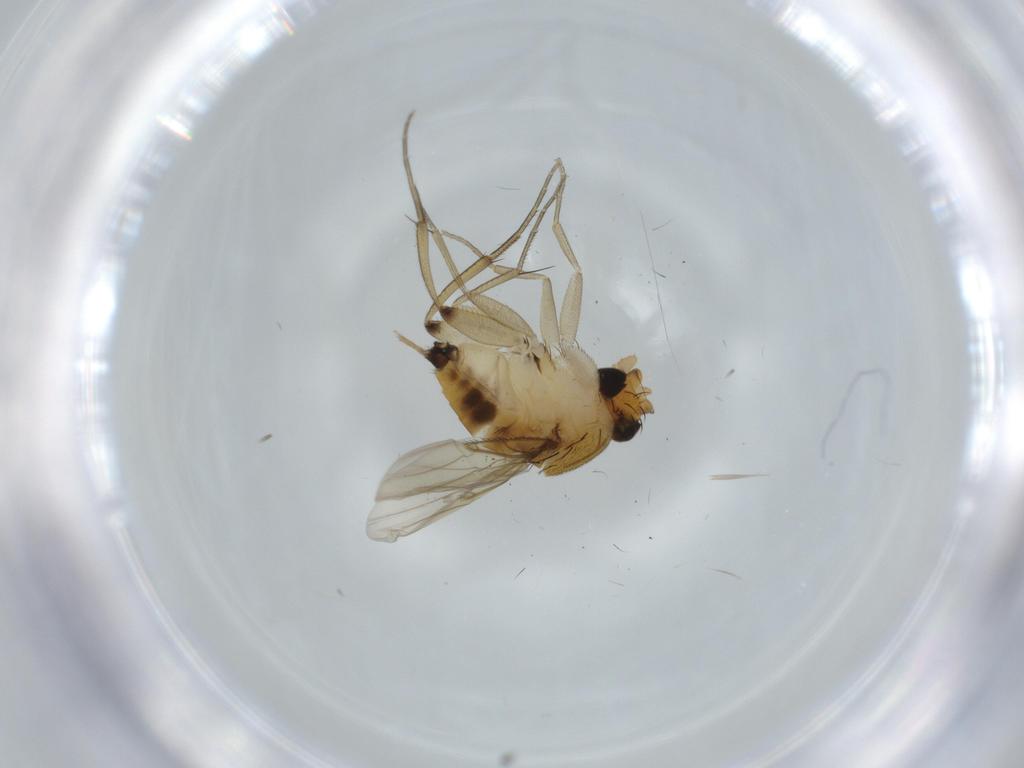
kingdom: Animalia
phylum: Arthropoda
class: Insecta
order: Diptera
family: Phoridae
